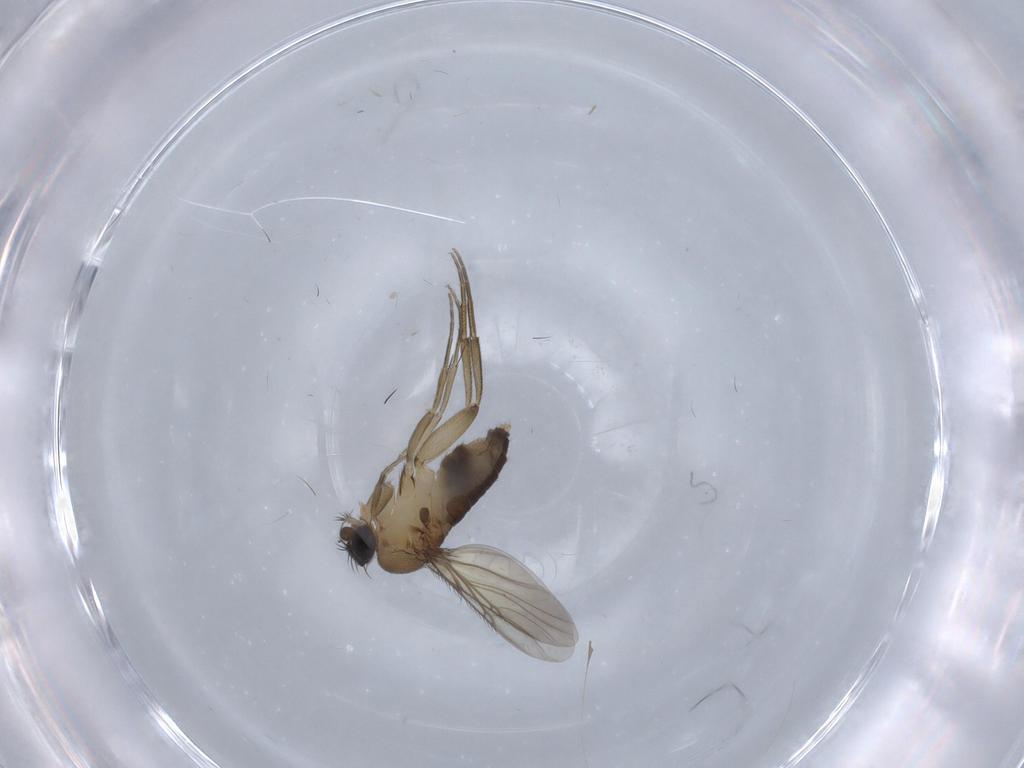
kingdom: Animalia
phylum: Arthropoda
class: Insecta
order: Diptera
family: Phoridae
